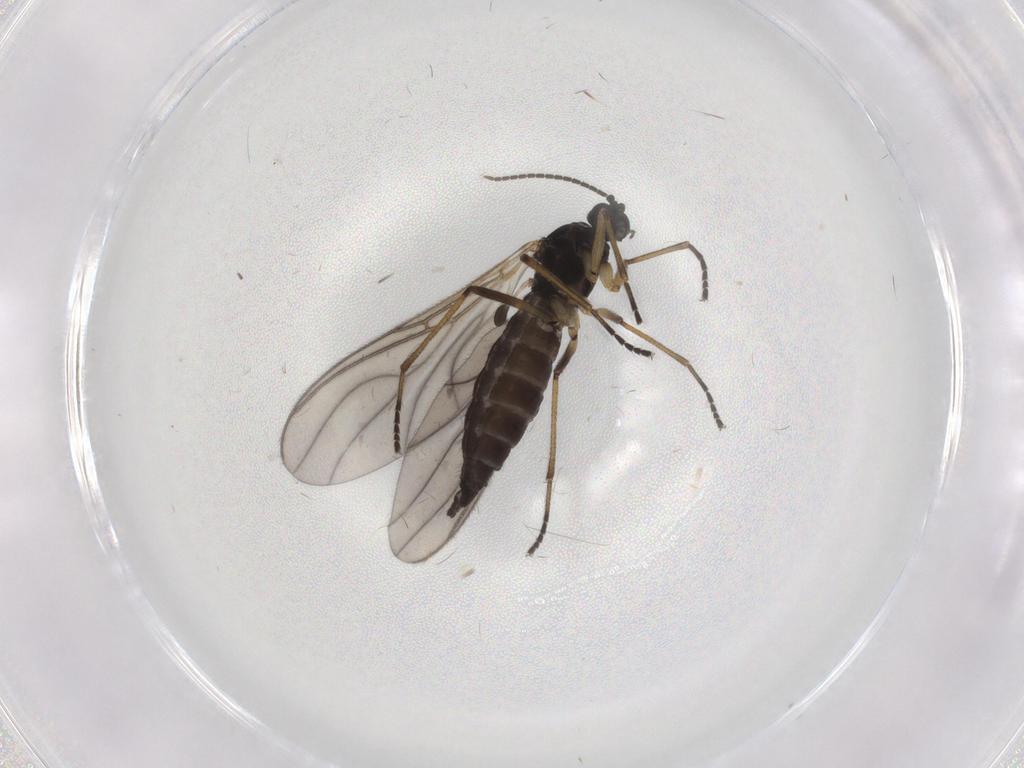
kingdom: Animalia
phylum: Arthropoda
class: Insecta
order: Diptera
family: Sciaridae
